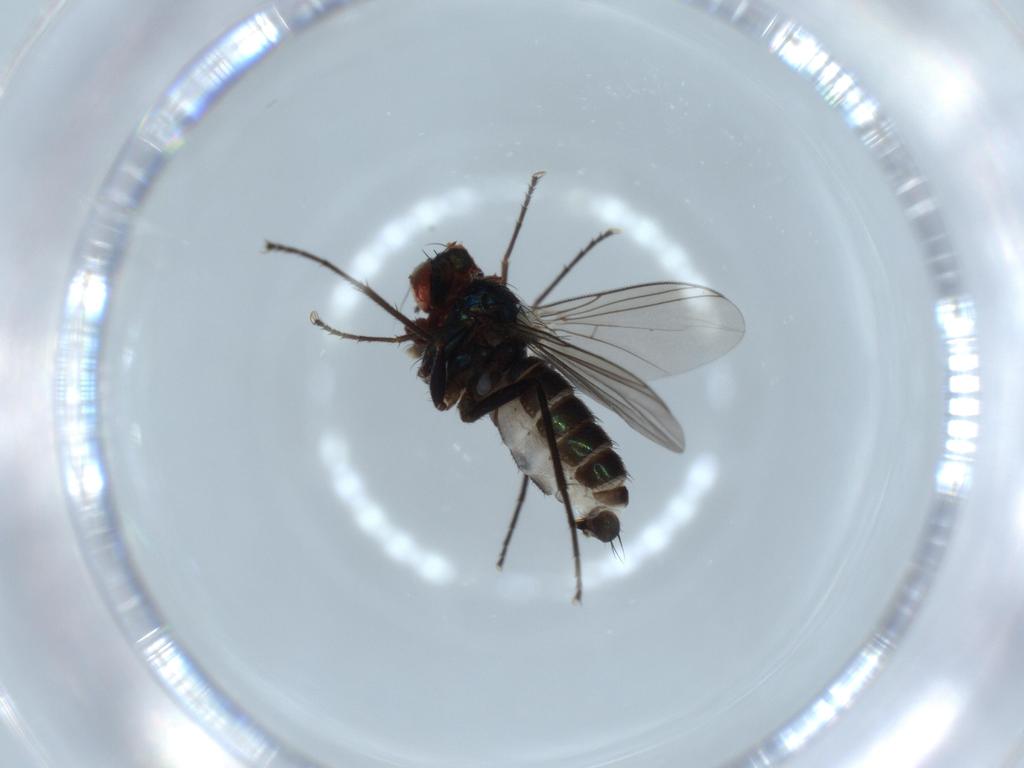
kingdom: Animalia
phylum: Arthropoda
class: Insecta
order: Diptera
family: Dolichopodidae
